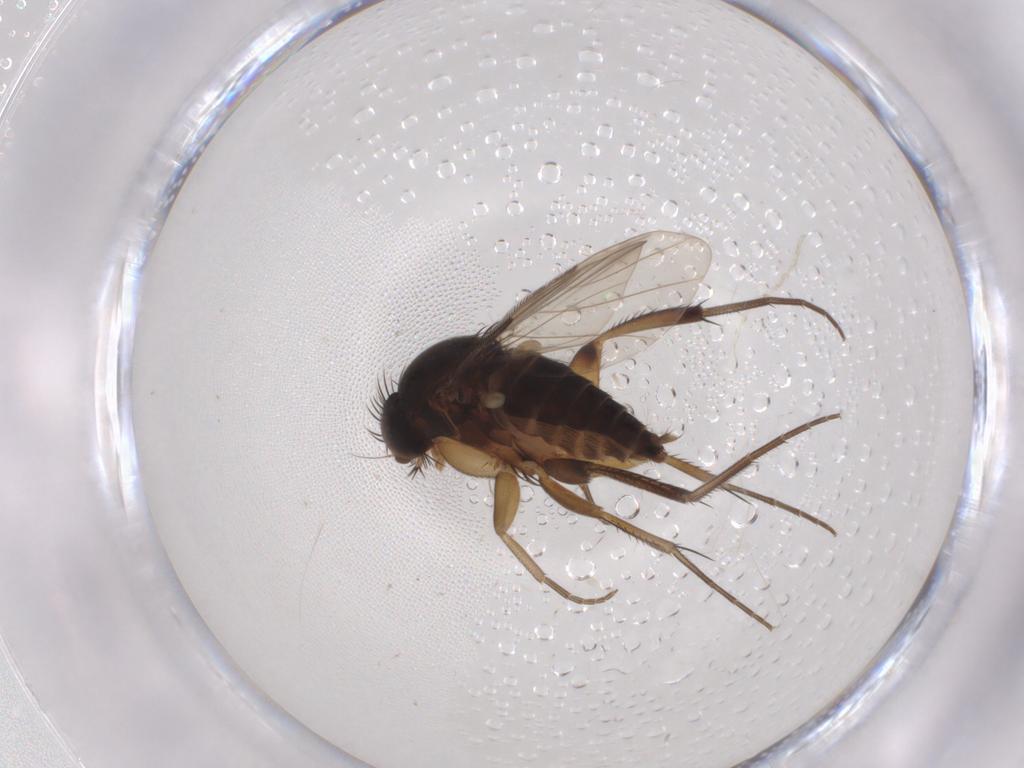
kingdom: Animalia
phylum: Arthropoda
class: Insecta
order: Diptera
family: Phoridae
